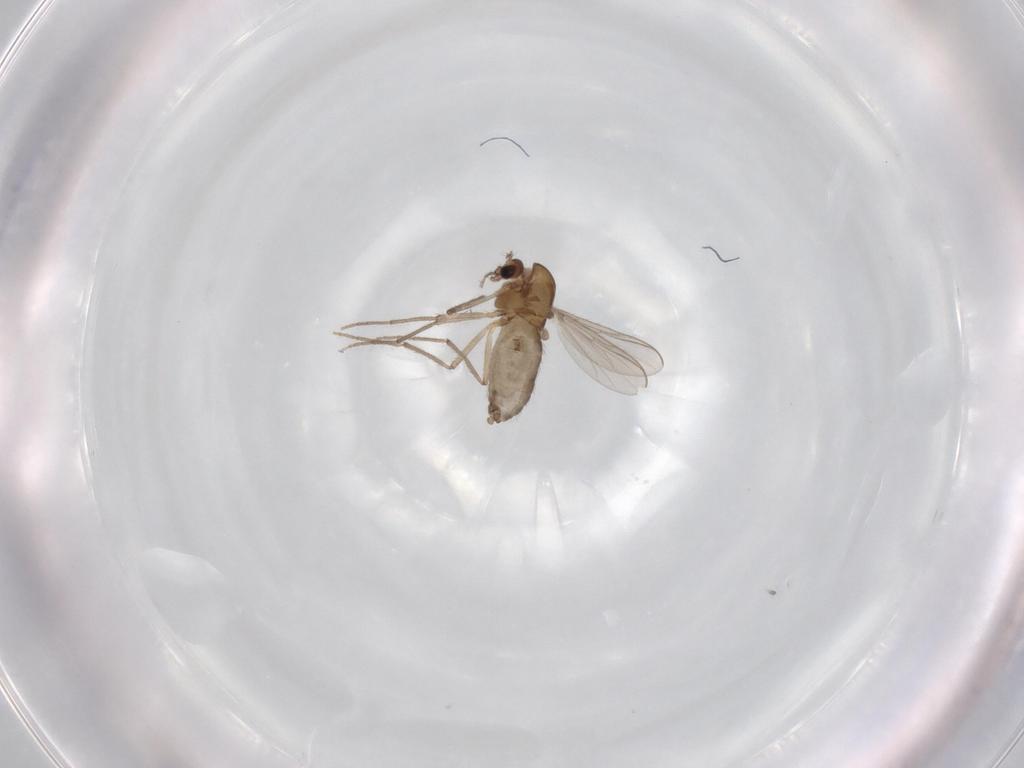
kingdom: Animalia
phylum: Arthropoda
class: Insecta
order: Diptera
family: Chironomidae
